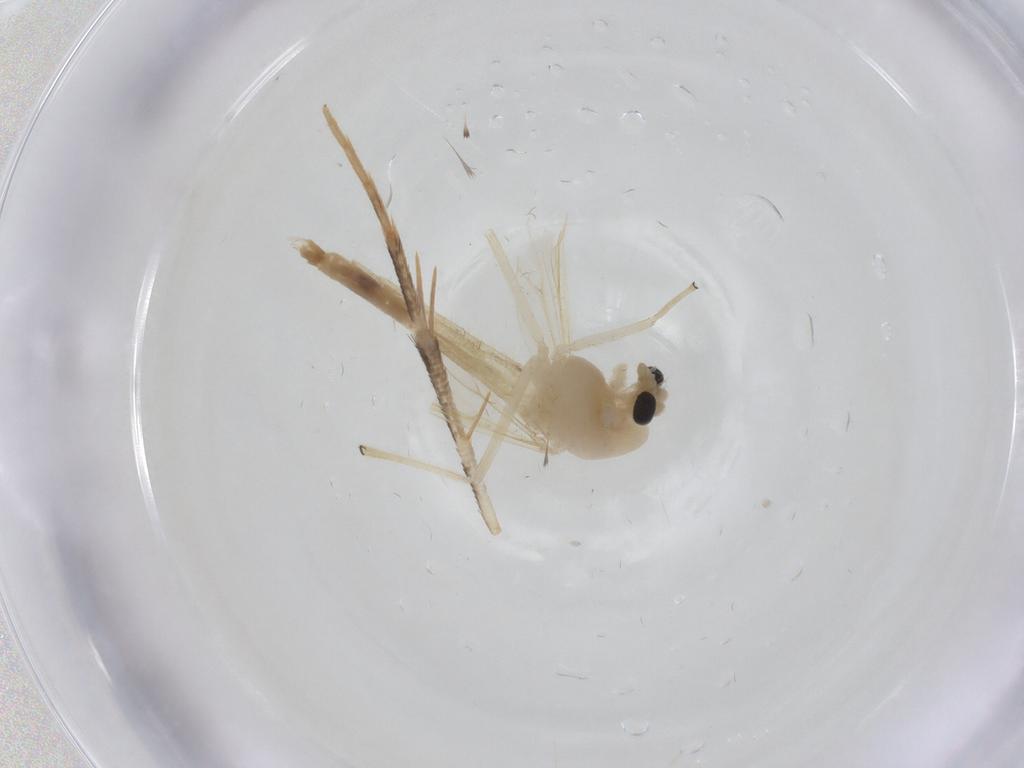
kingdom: Animalia
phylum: Arthropoda
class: Insecta
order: Diptera
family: Chironomidae
